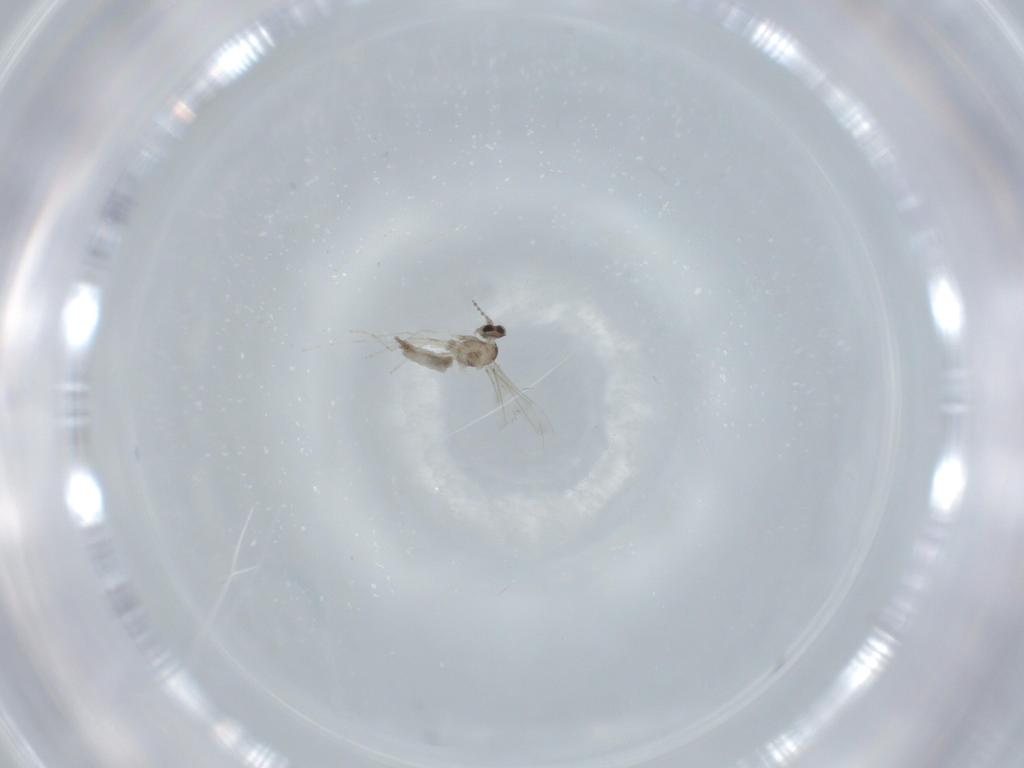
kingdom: Animalia
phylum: Arthropoda
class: Insecta
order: Diptera
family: Cecidomyiidae
